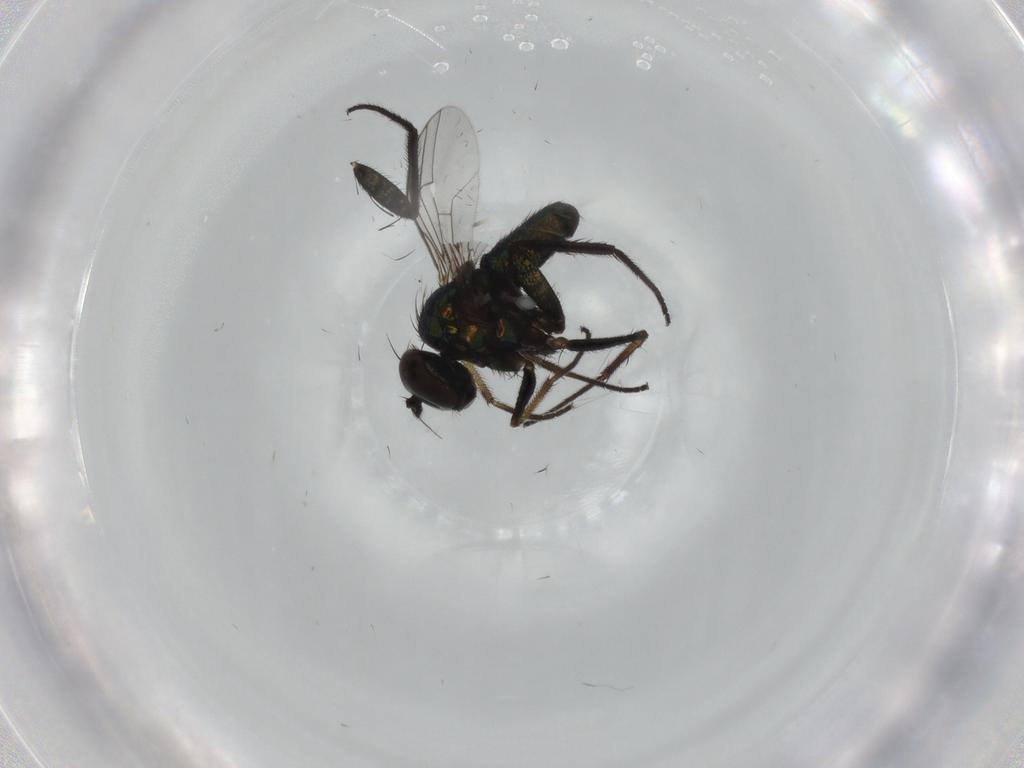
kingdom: Animalia
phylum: Arthropoda
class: Insecta
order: Diptera
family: Dolichopodidae
